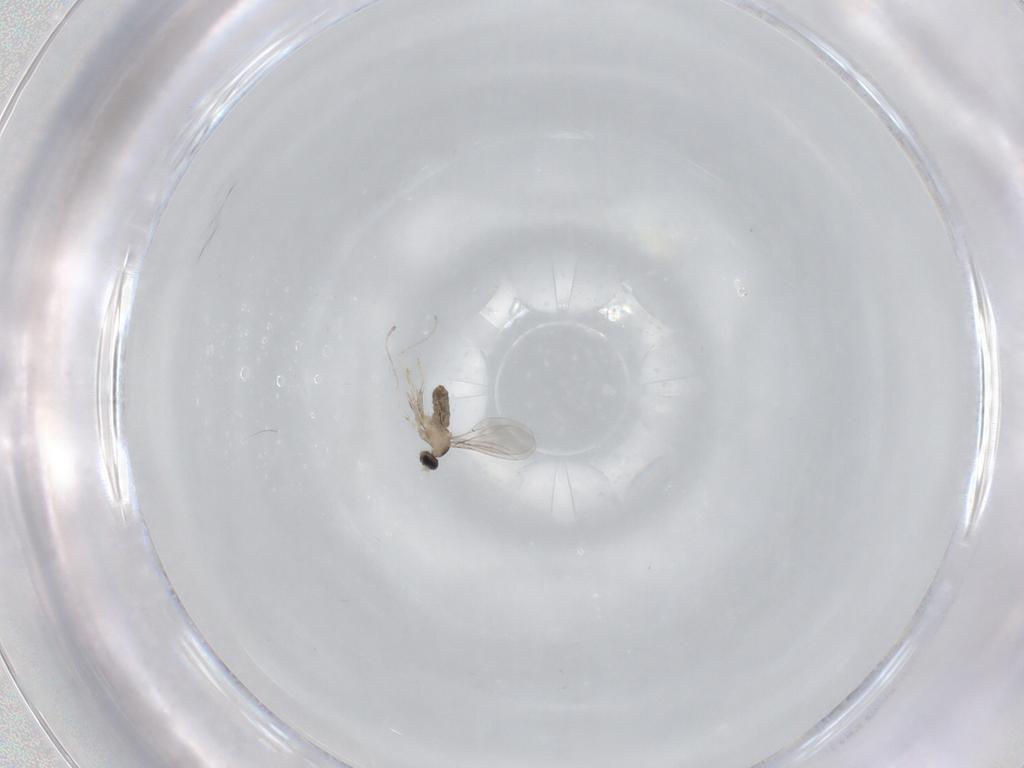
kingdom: Animalia
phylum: Arthropoda
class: Insecta
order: Diptera
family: Cecidomyiidae
